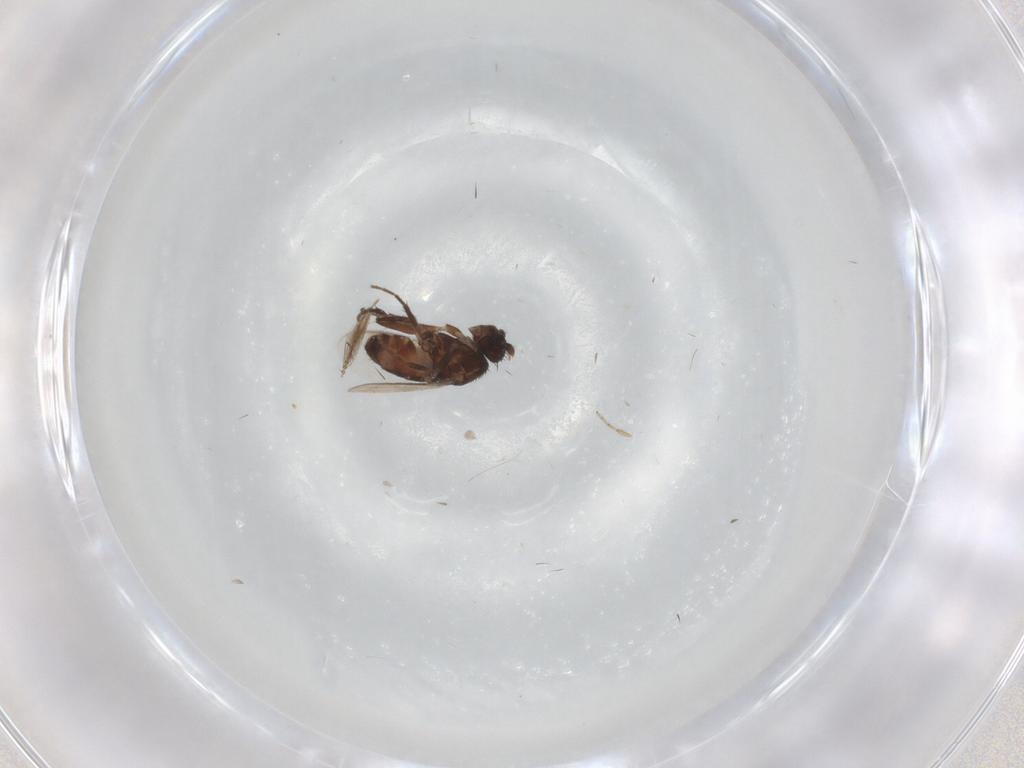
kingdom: Animalia
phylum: Arthropoda
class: Insecta
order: Diptera
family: Sphaeroceridae
